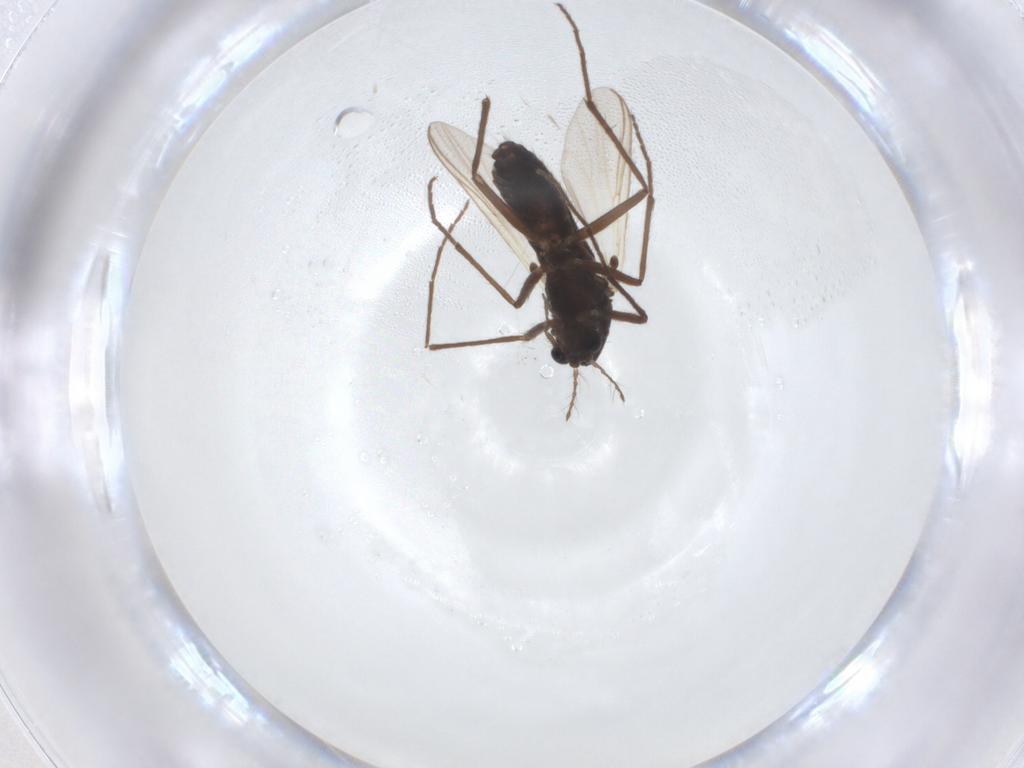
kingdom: Animalia
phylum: Arthropoda
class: Insecta
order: Diptera
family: Chironomidae
